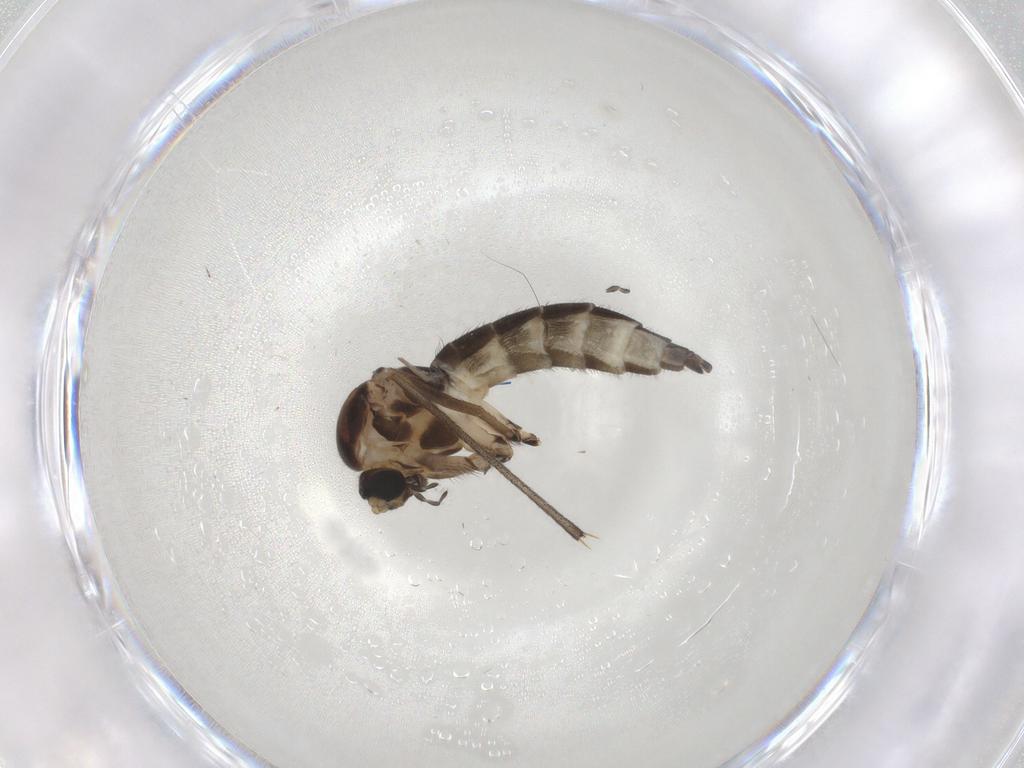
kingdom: Animalia
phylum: Arthropoda
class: Insecta
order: Diptera
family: Sciaridae
